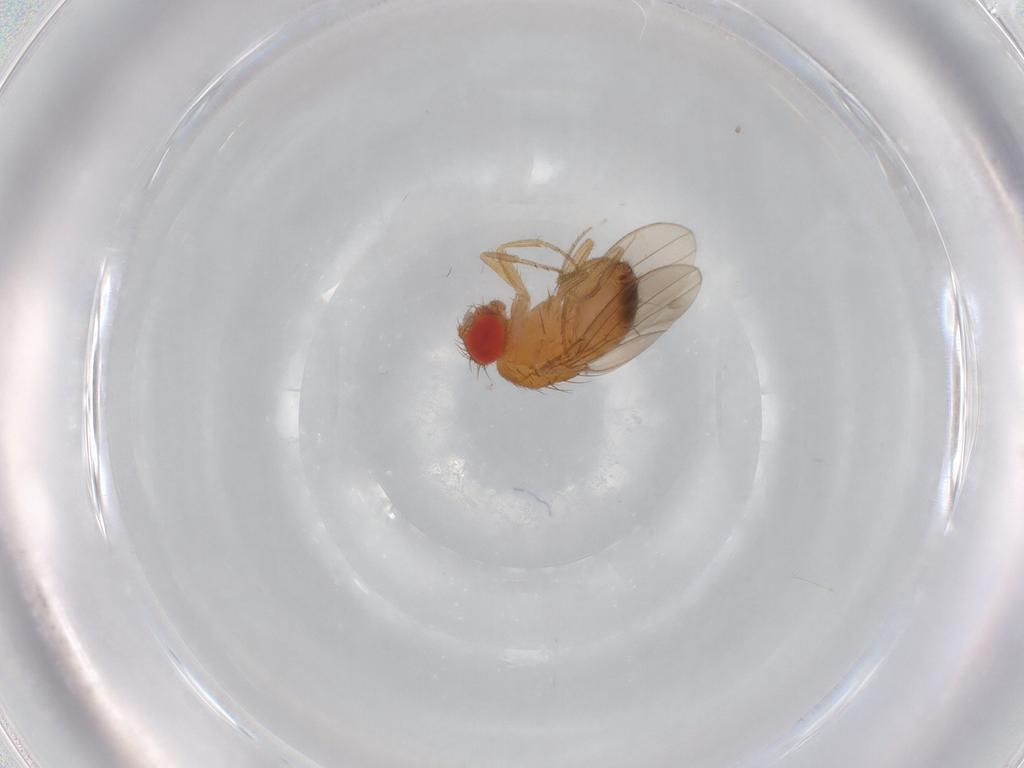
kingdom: Animalia
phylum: Arthropoda
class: Insecta
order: Diptera
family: Drosophilidae
